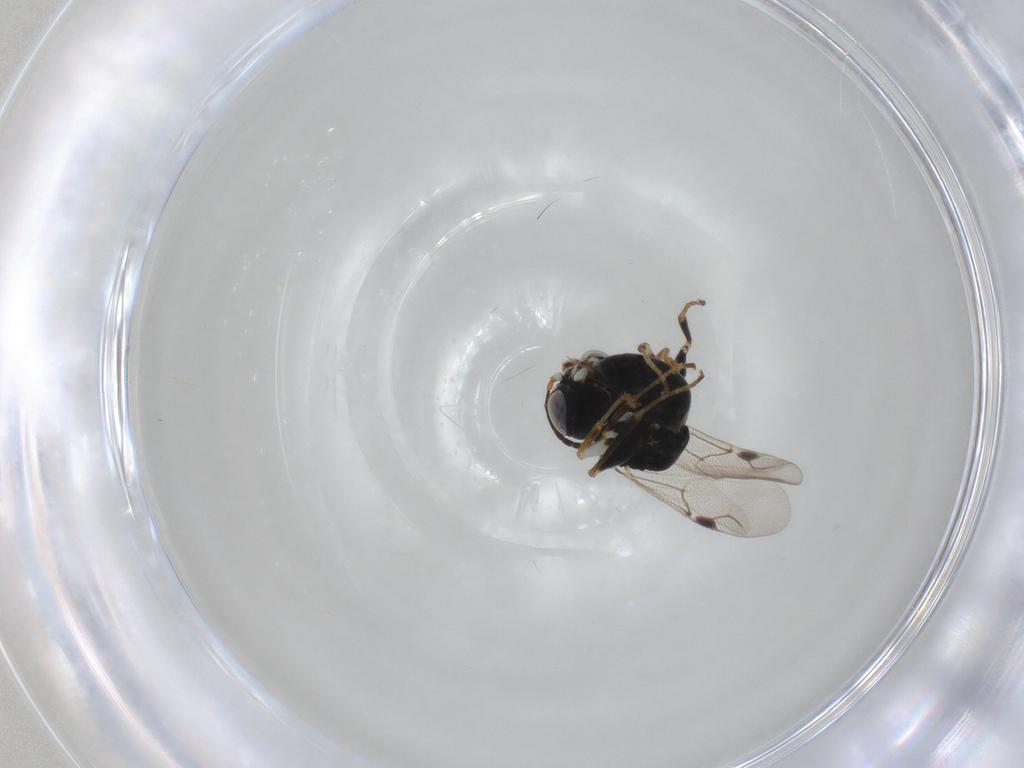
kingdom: Animalia
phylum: Arthropoda
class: Insecta
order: Hymenoptera
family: Dryinidae
